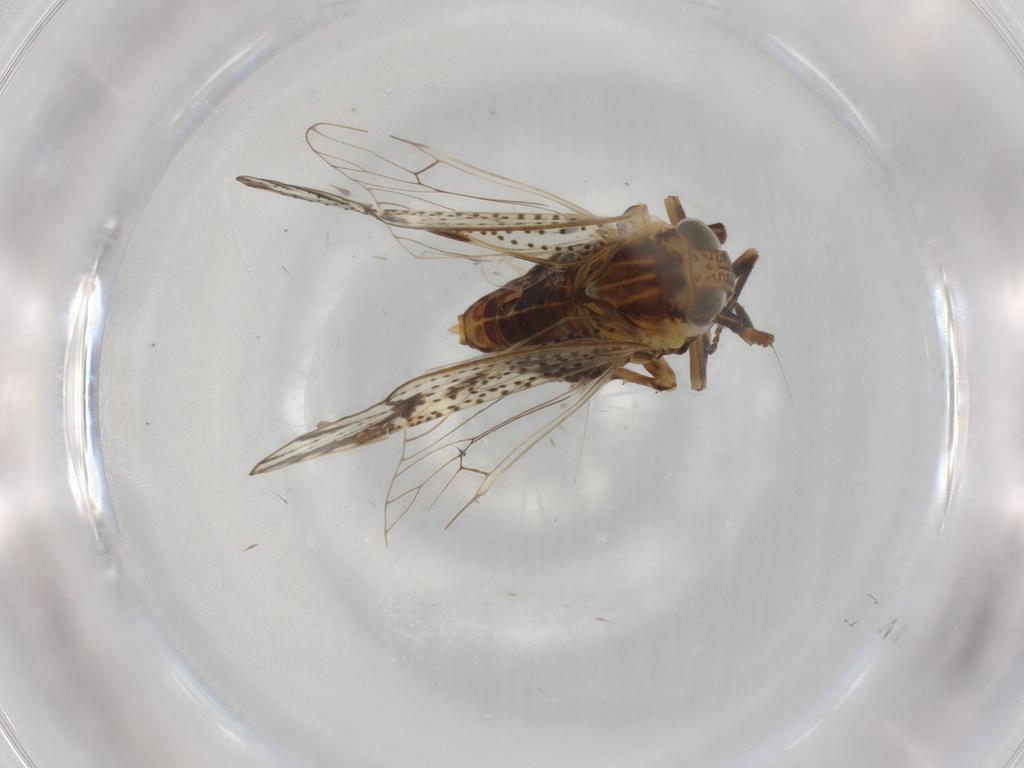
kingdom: Animalia
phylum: Arthropoda
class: Insecta
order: Hemiptera
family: Delphacidae
